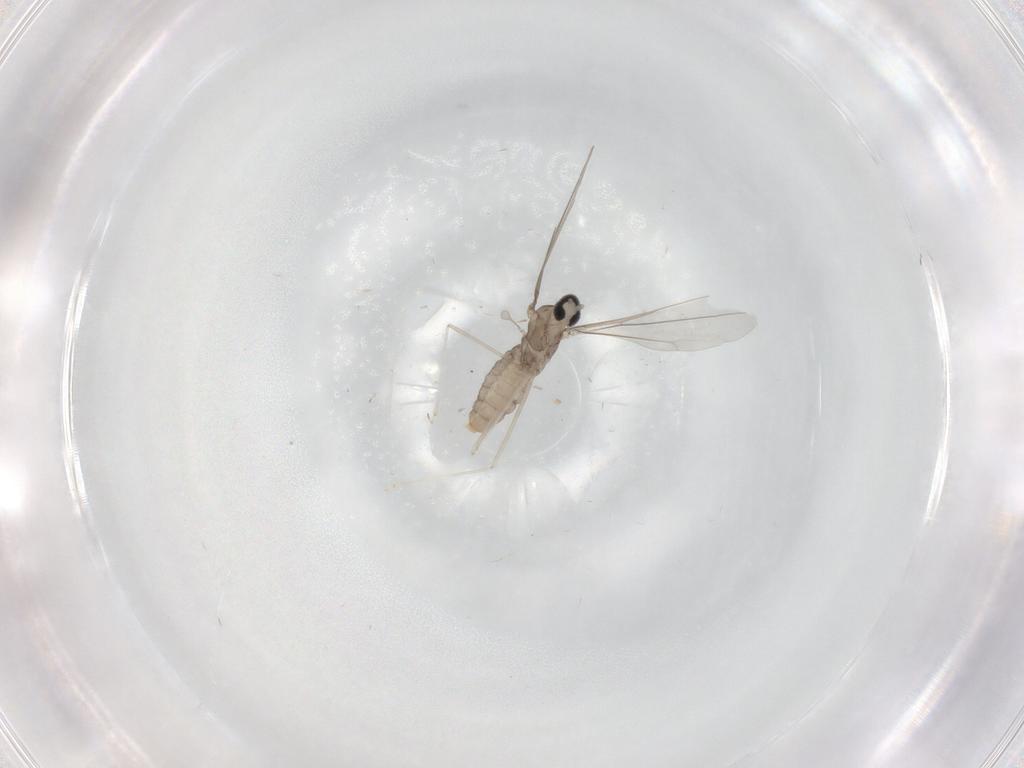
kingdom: Animalia
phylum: Arthropoda
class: Insecta
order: Diptera
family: Cecidomyiidae
